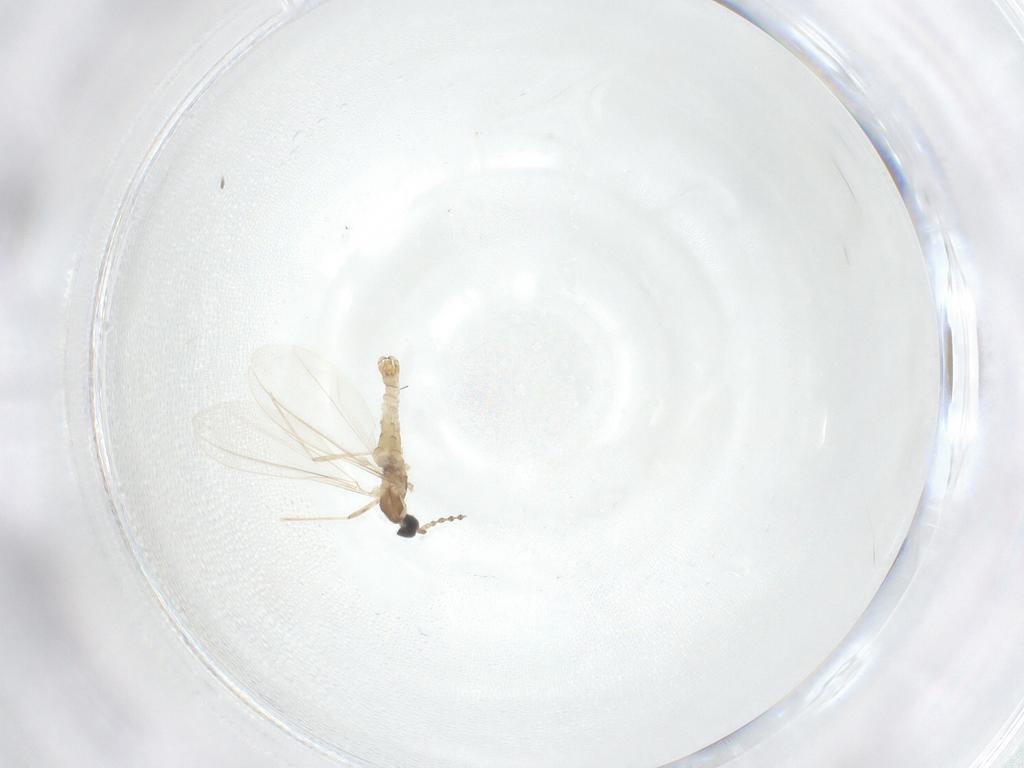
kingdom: Animalia
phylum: Arthropoda
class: Insecta
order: Diptera
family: Cecidomyiidae
